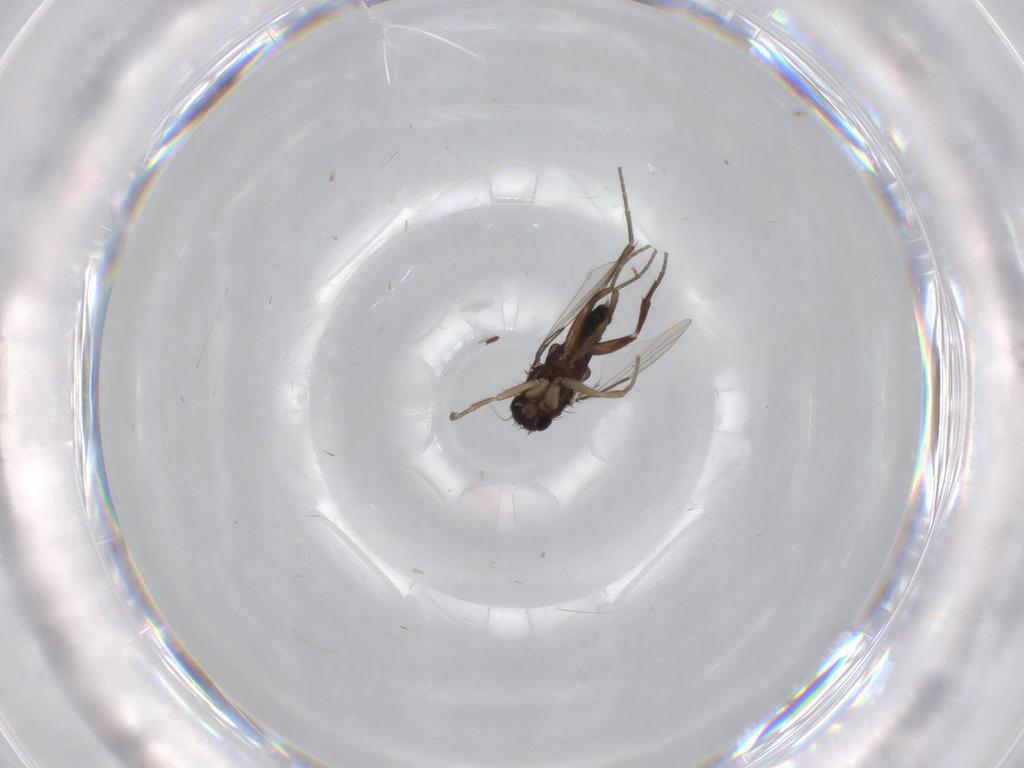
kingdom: Animalia
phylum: Arthropoda
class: Insecta
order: Diptera
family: Phoridae
